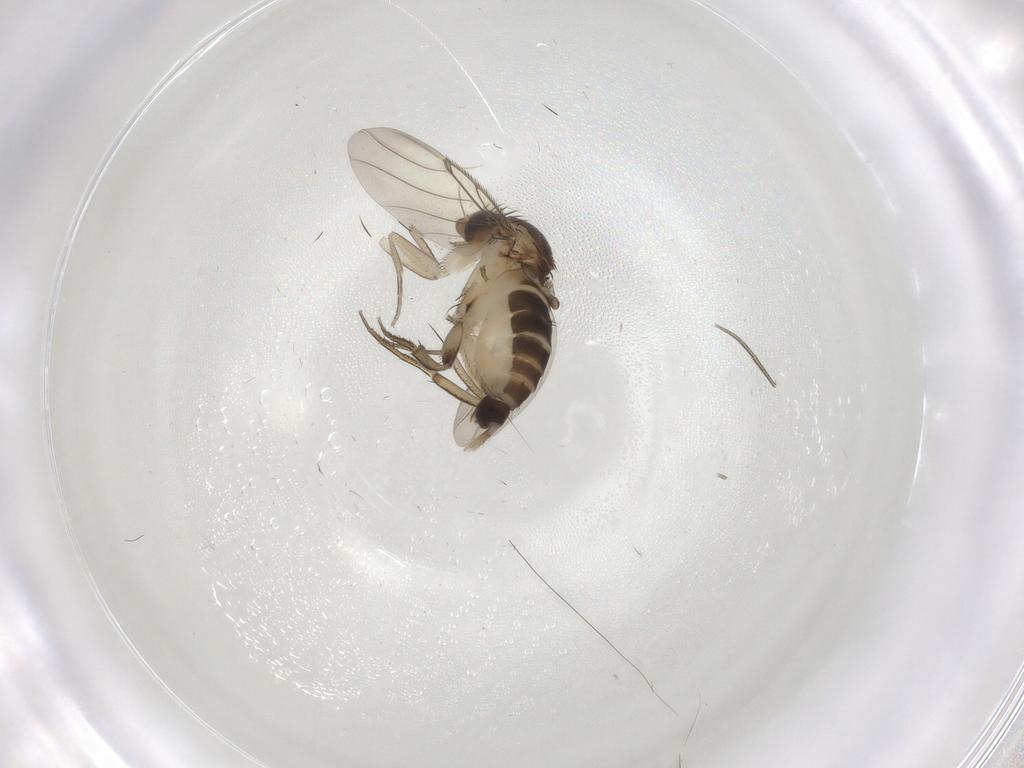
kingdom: Animalia
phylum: Arthropoda
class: Insecta
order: Diptera
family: Phoridae
